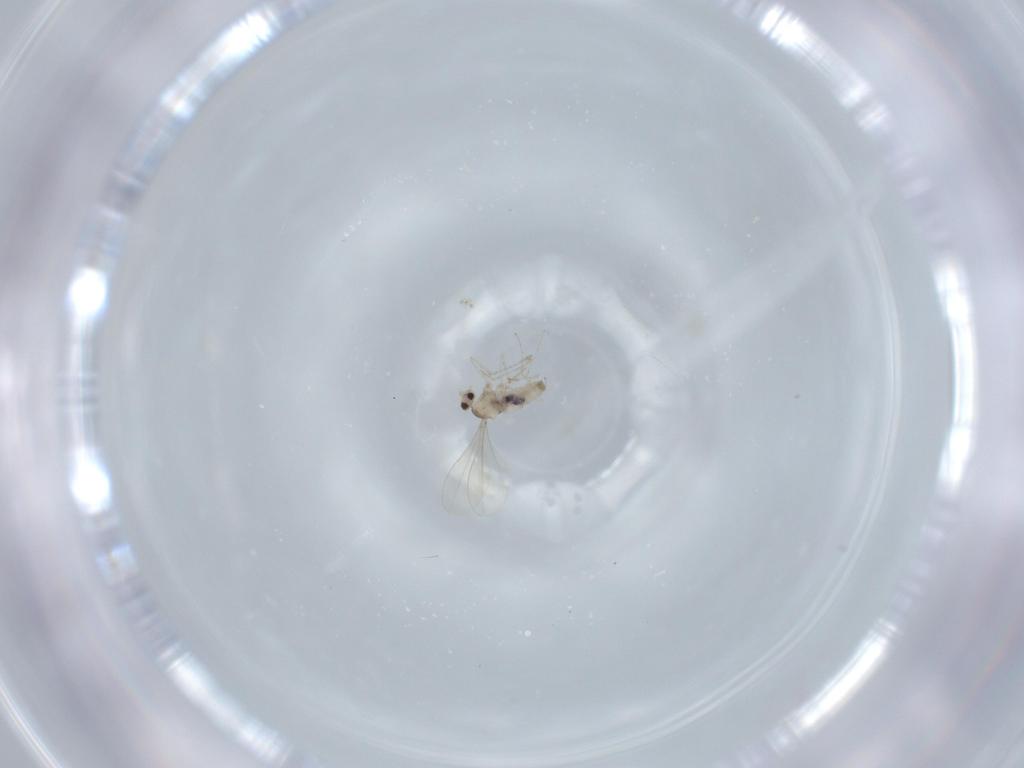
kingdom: Animalia
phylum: Arthropoda
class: Insecta
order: Diptera
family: Cecidomyiidae
